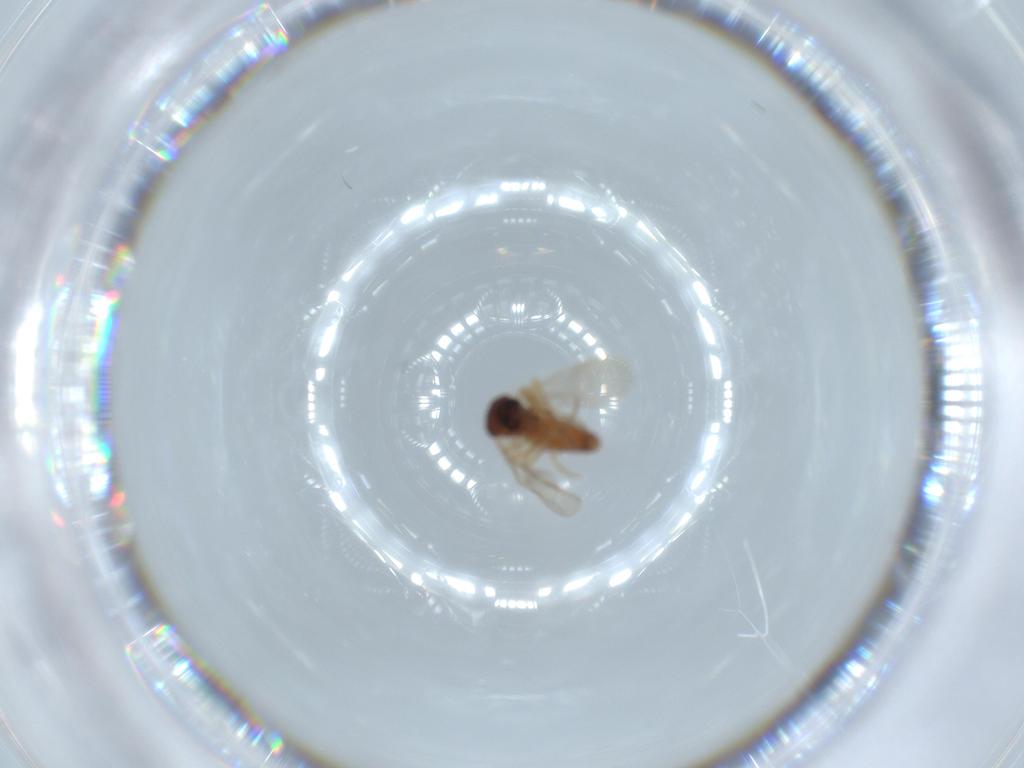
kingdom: Animalia
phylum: Arthropoda
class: Insecta
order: Diptera
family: Ceratopogonidae
